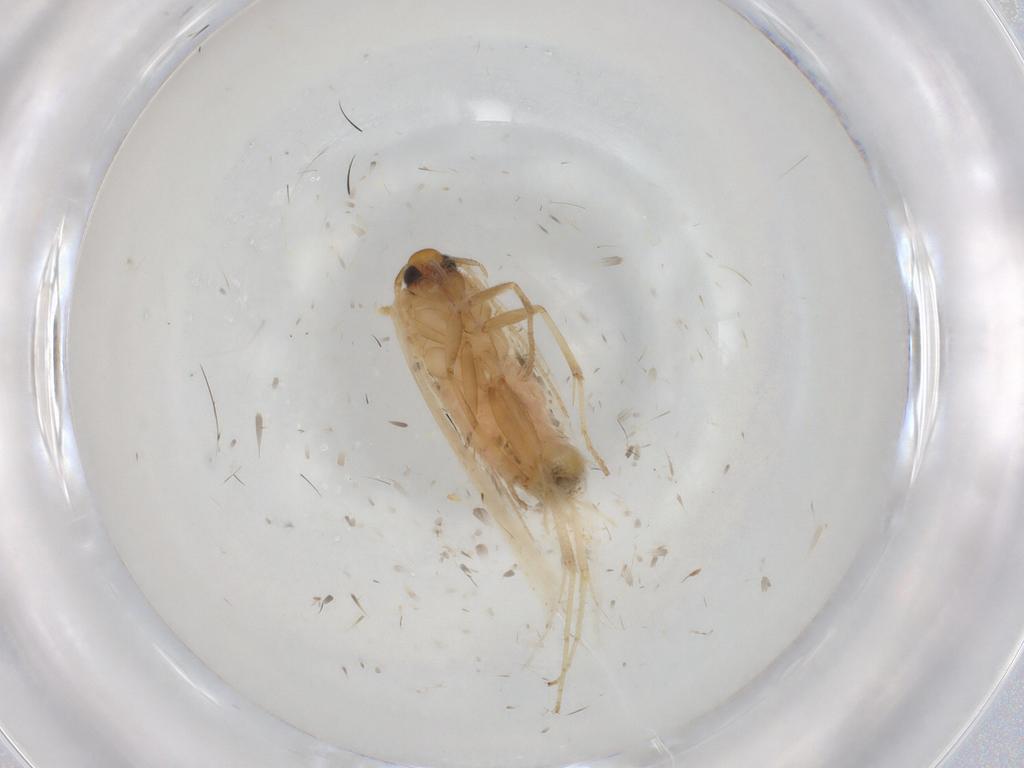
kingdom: Animalia
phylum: Arthropoda
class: Insecta
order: Lepidoptera
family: Gelechiidae
